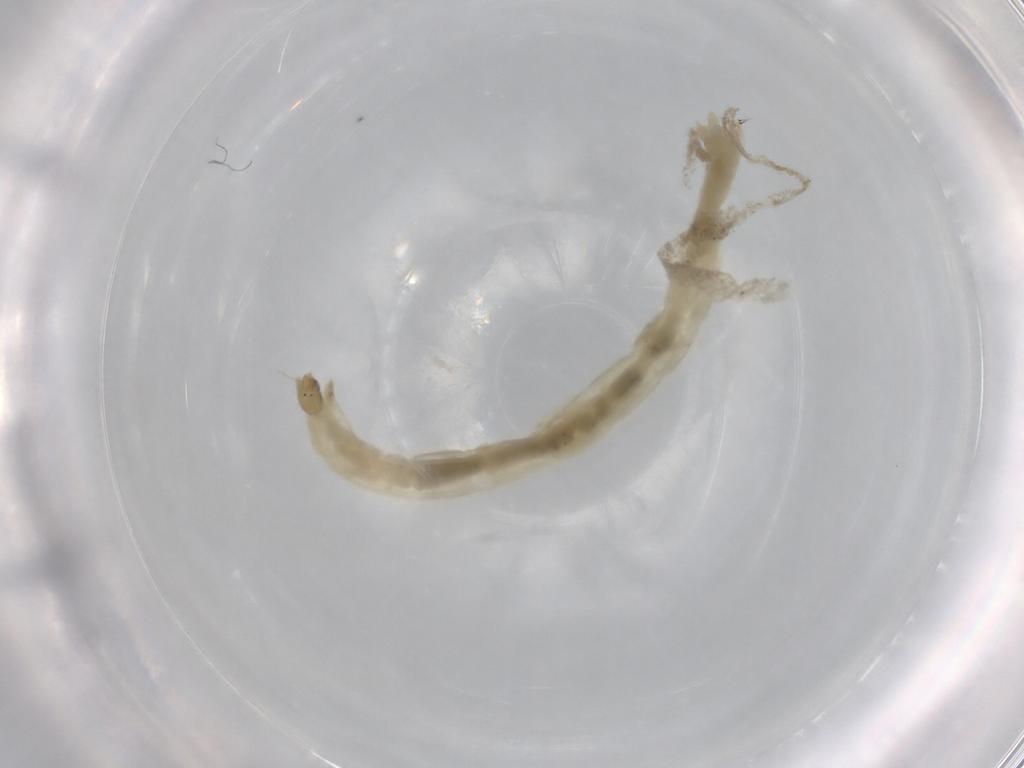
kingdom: Animalia
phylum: Arthropoda
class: Insecta
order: Diptera
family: Chironomidae
